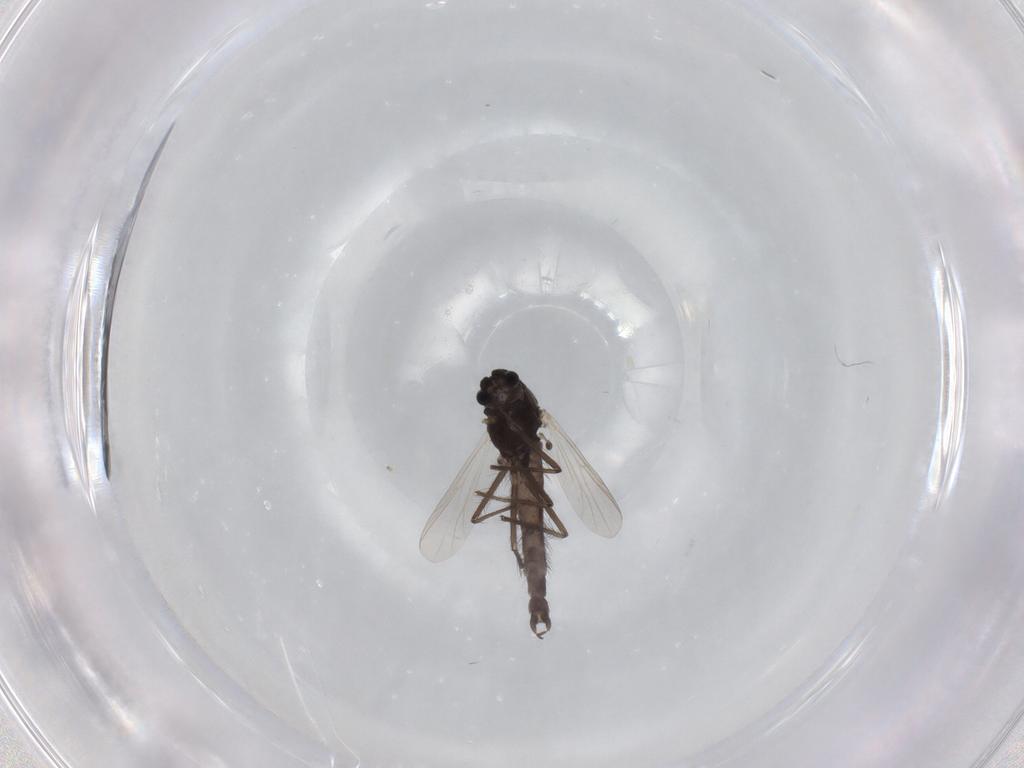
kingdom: Animalia
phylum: Arthropoda
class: Insecta
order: Diptera
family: Chironomidae
